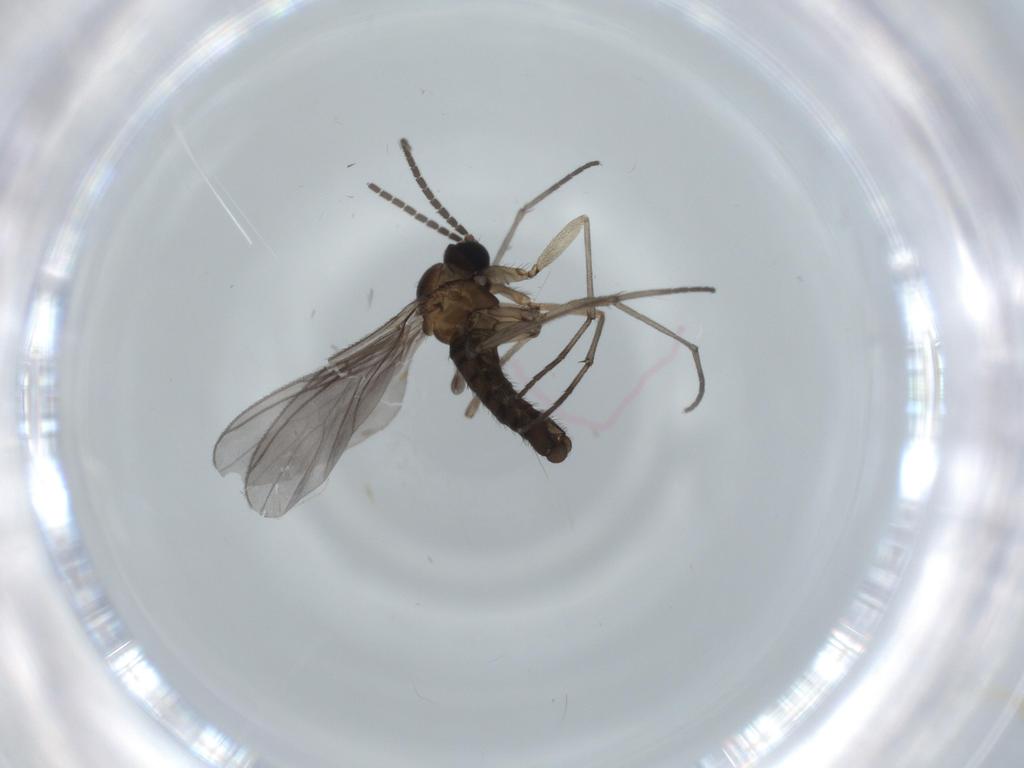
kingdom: Animalia
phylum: Arthropoda
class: Insecta
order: Diptera
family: Sciaridae
